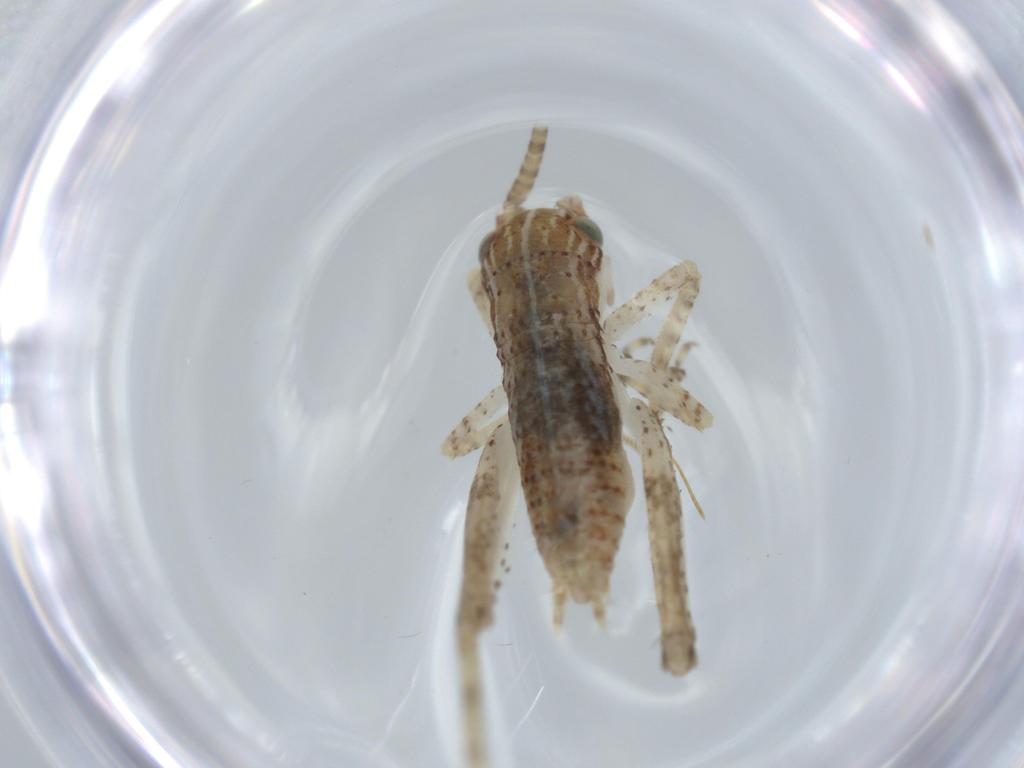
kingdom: Animalia
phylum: Arthropoda
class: Insecta
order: Orthoptera
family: Gryllidae
